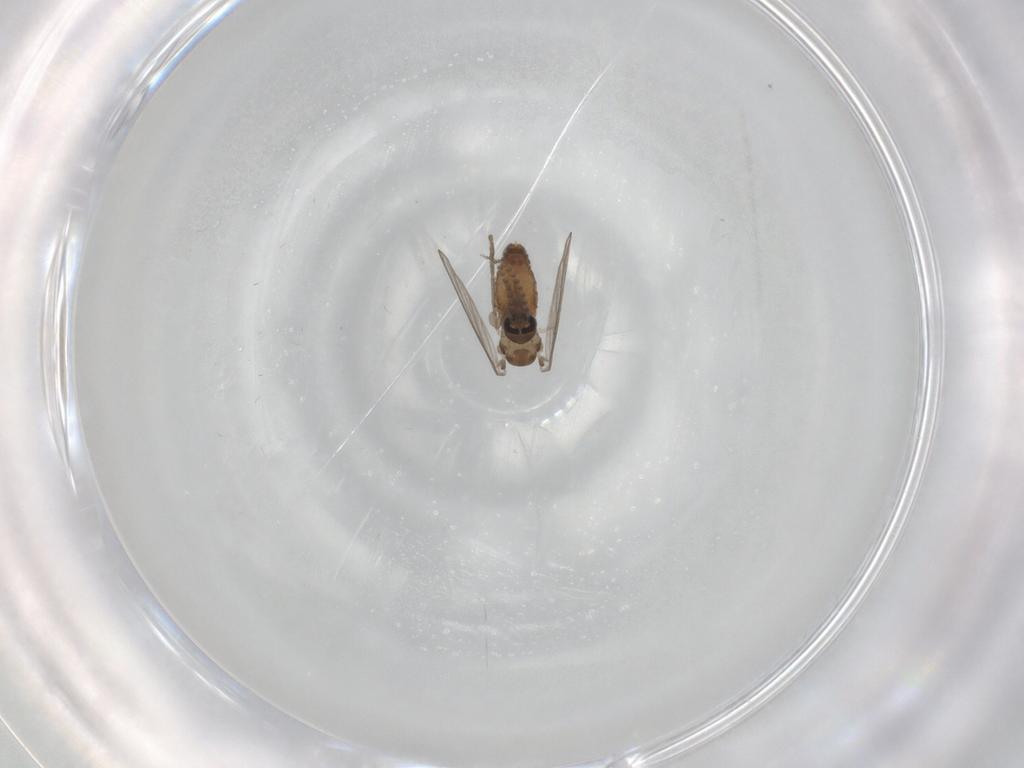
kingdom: Animalia
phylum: Arthropoda
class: Insecta
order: Diptera
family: Psychodidae
